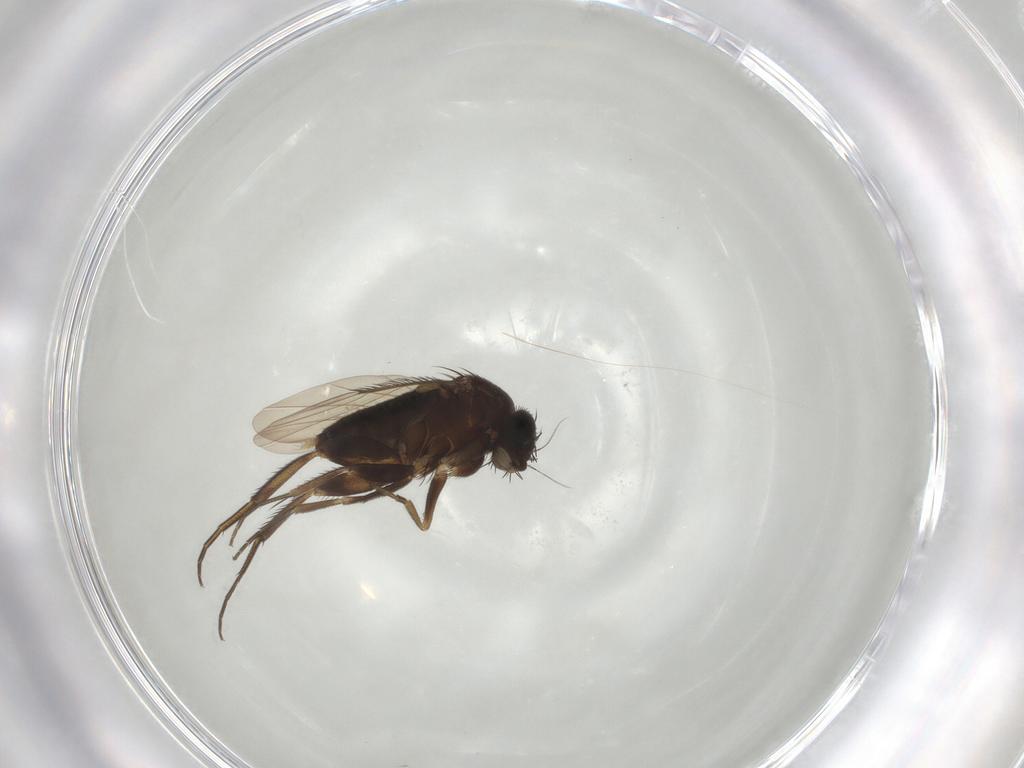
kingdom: Animalia
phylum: Arthropoda
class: Insecta
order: Diptera
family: Phoridae
